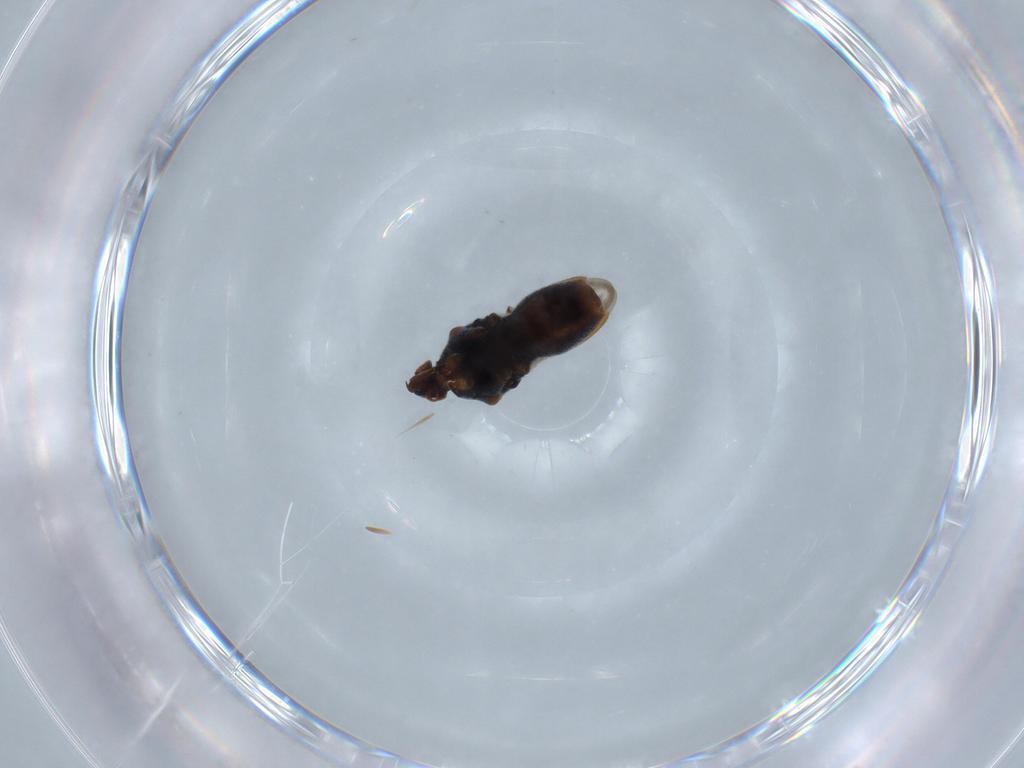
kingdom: Animalia
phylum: Arthropoda
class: Insecta
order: Hemiptera
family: Veliidae
